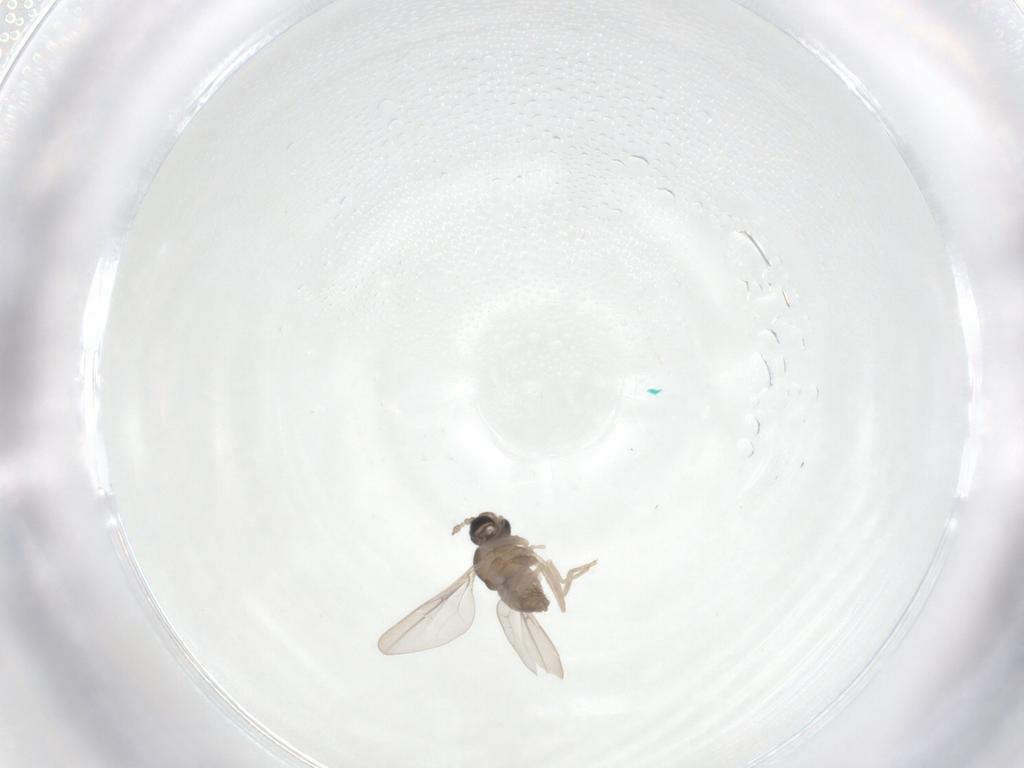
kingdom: Animalia
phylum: Arthropoda
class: Insecta
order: Diptera
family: Cecidomyiidae
